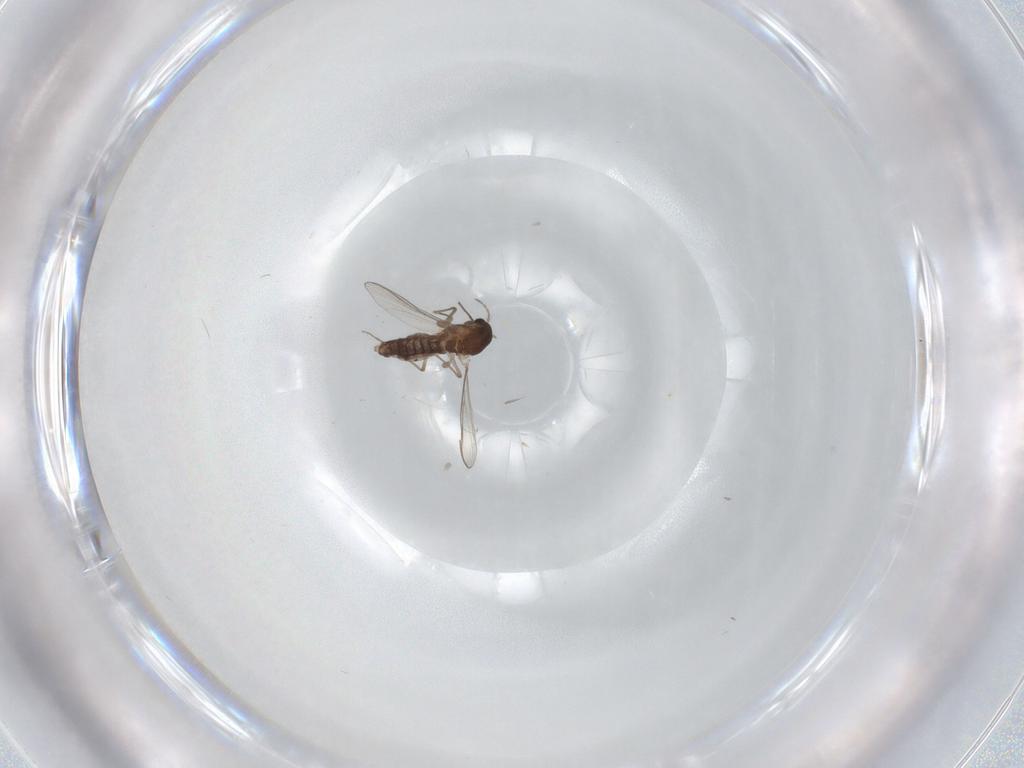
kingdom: Animalia
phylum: Arthropoda
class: Insecta
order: Diptera
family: Chironomidae
